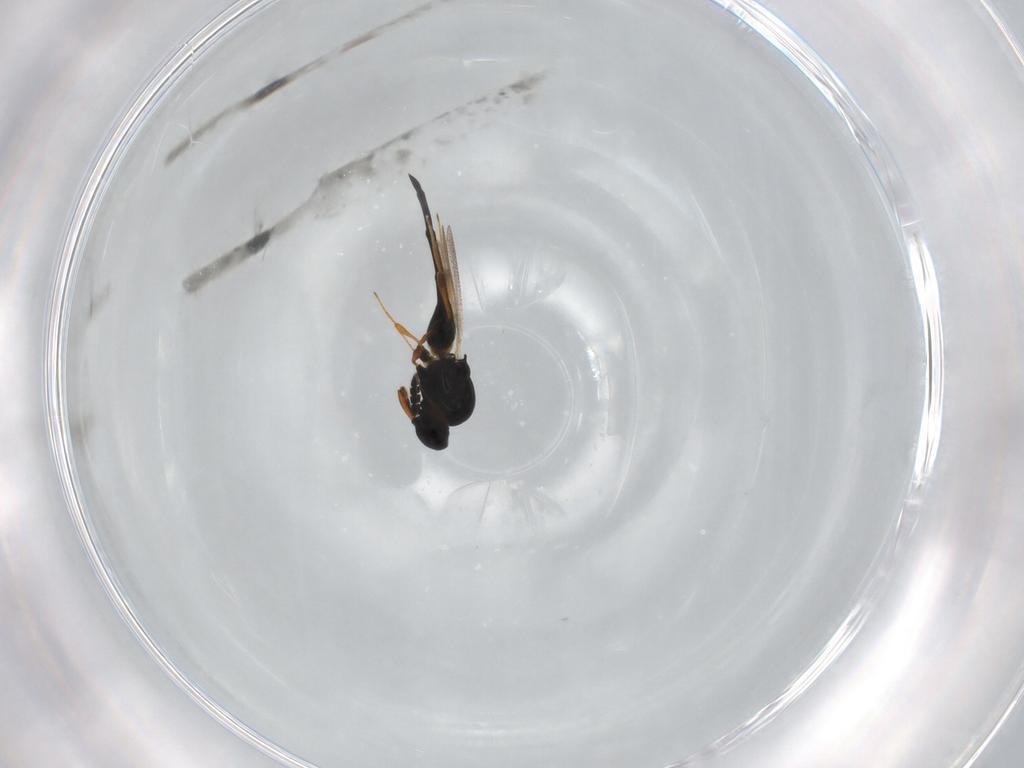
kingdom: Animalia
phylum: Arthropoda
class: Insecta
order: Hymenoptera
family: Platygastridae
